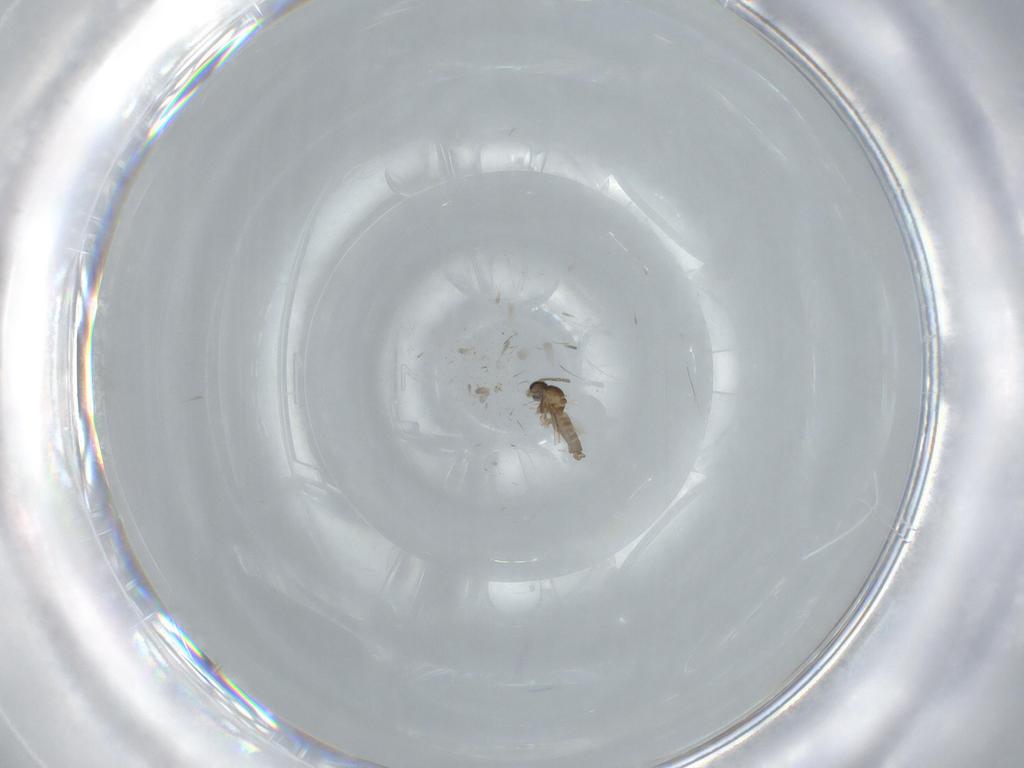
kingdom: Animalia
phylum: Arthropoda
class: Insecta
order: Diptera
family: Cecidomyiidae
